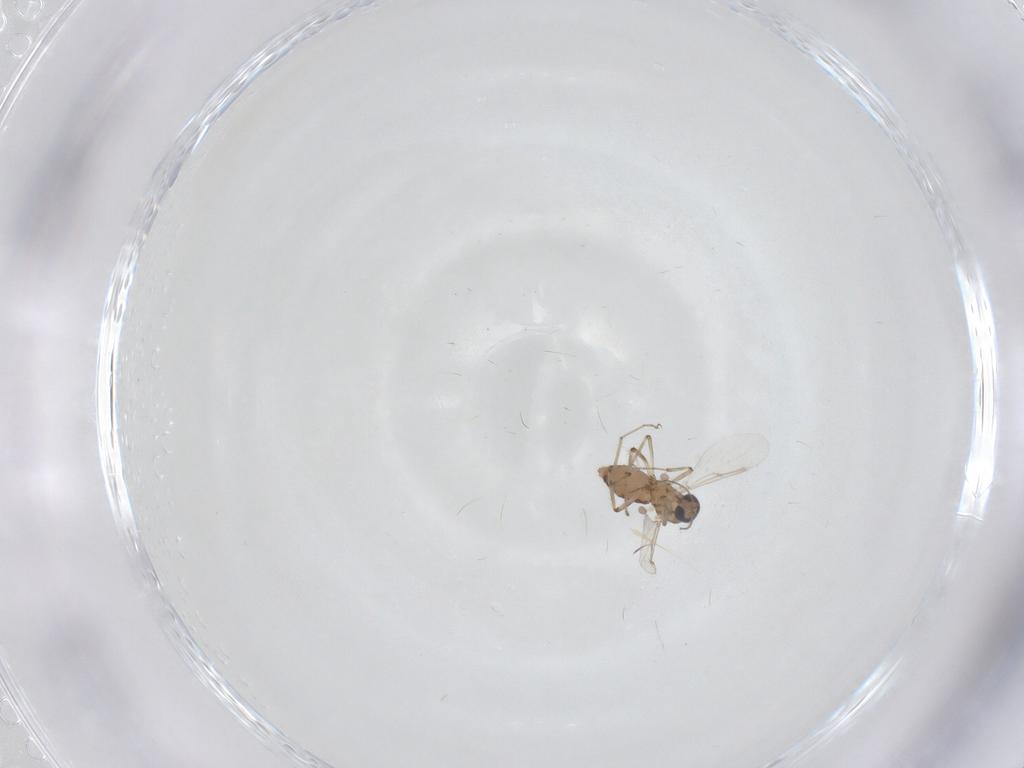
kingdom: Animalia
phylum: Arthropoda
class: Insecta
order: Diptera
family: Ceratopogonidae
